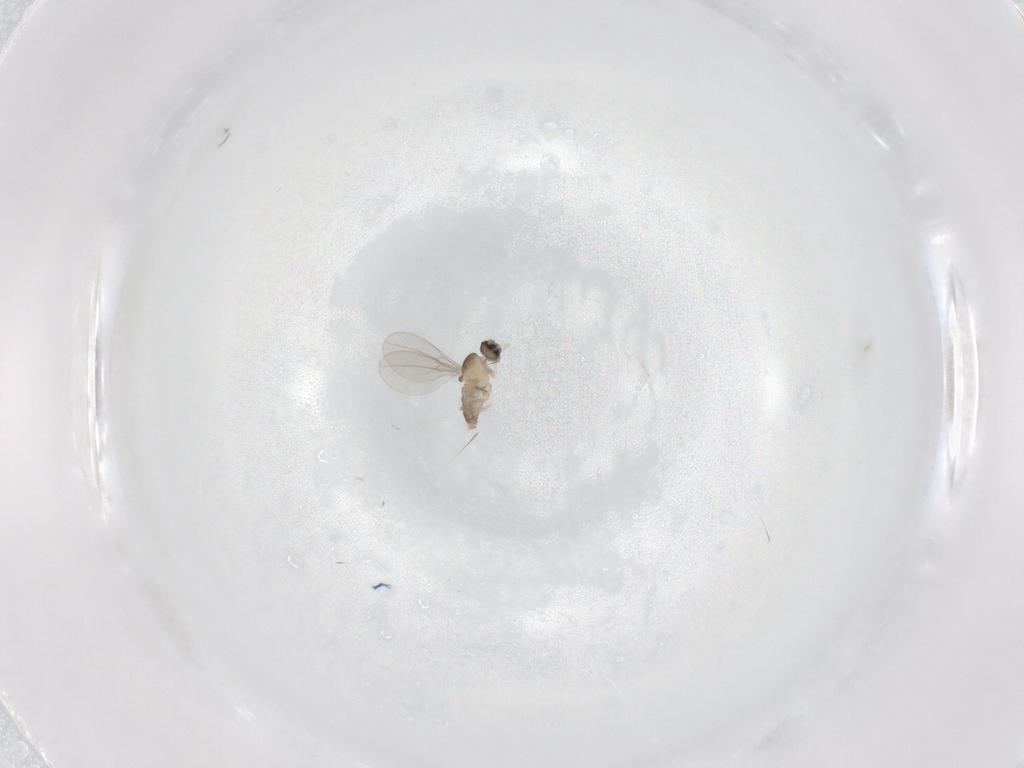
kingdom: Animalia
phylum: Arthropoda
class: Insecta
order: Diptera
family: Cecidomyiidae
